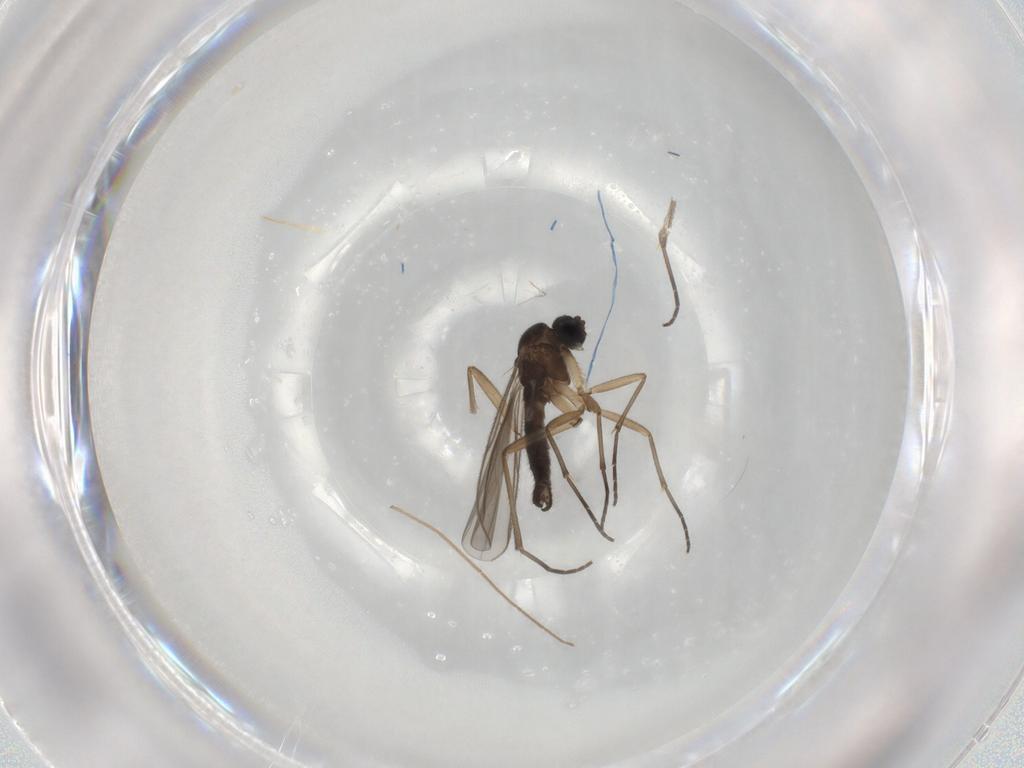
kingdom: Animalia
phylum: Arthropoda
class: Insecta
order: Diptera
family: Sciaridae
